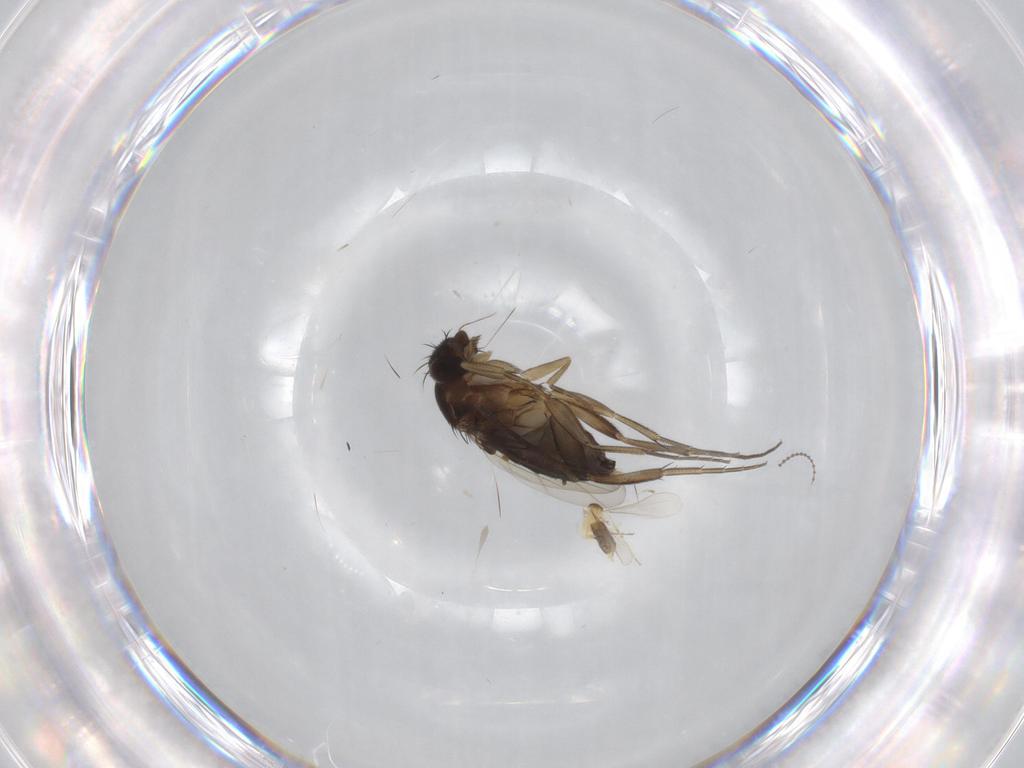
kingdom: Animalia
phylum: Arthropoda
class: Insecta
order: Diptera
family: Phoridae
